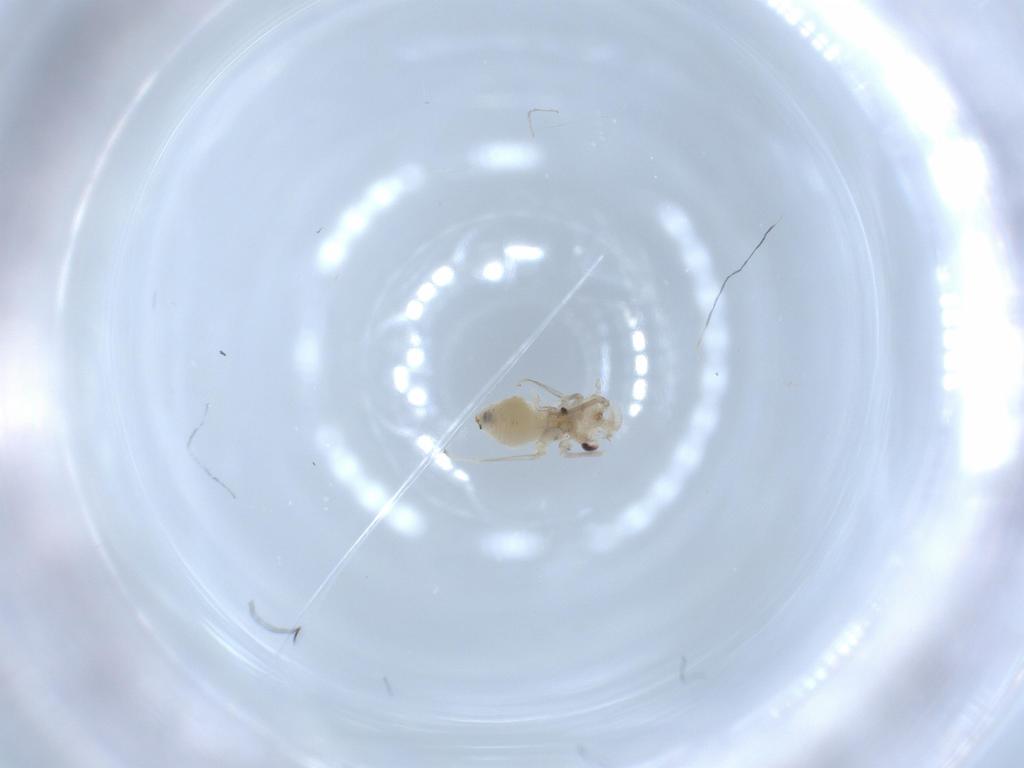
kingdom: Animalia
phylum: Arthropoda
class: Insecta
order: Psocodea
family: Caeciliusidae
